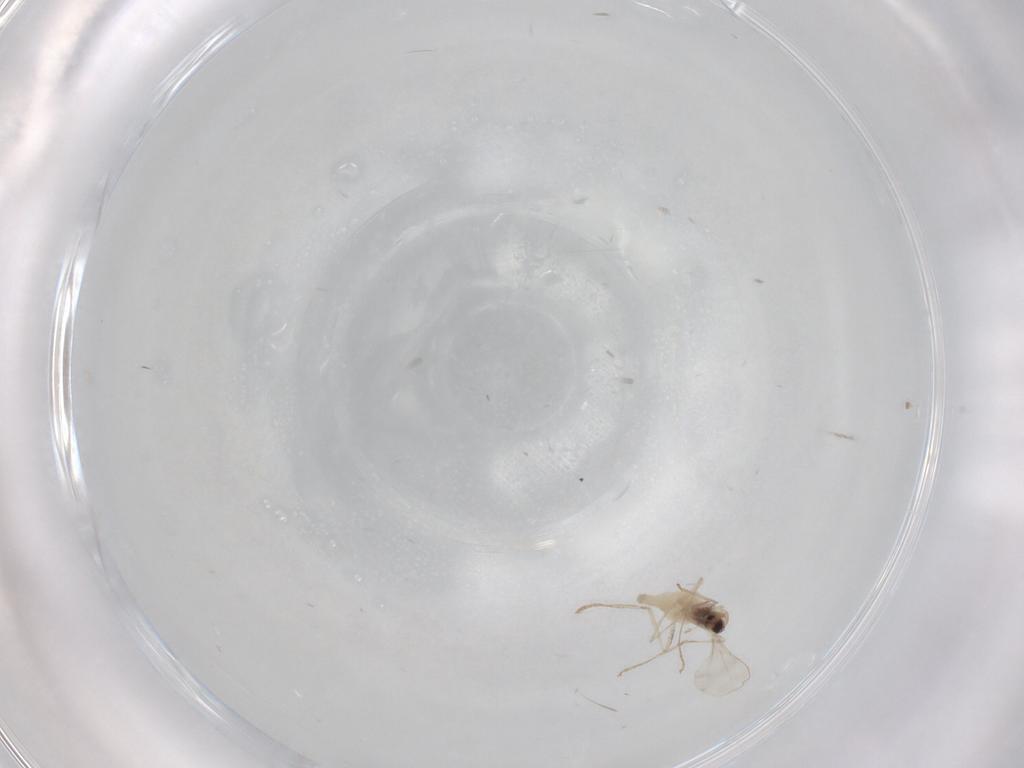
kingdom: Animalia
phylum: Arthropoda
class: Insecta
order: Diptera
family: Cecidomyiidae
